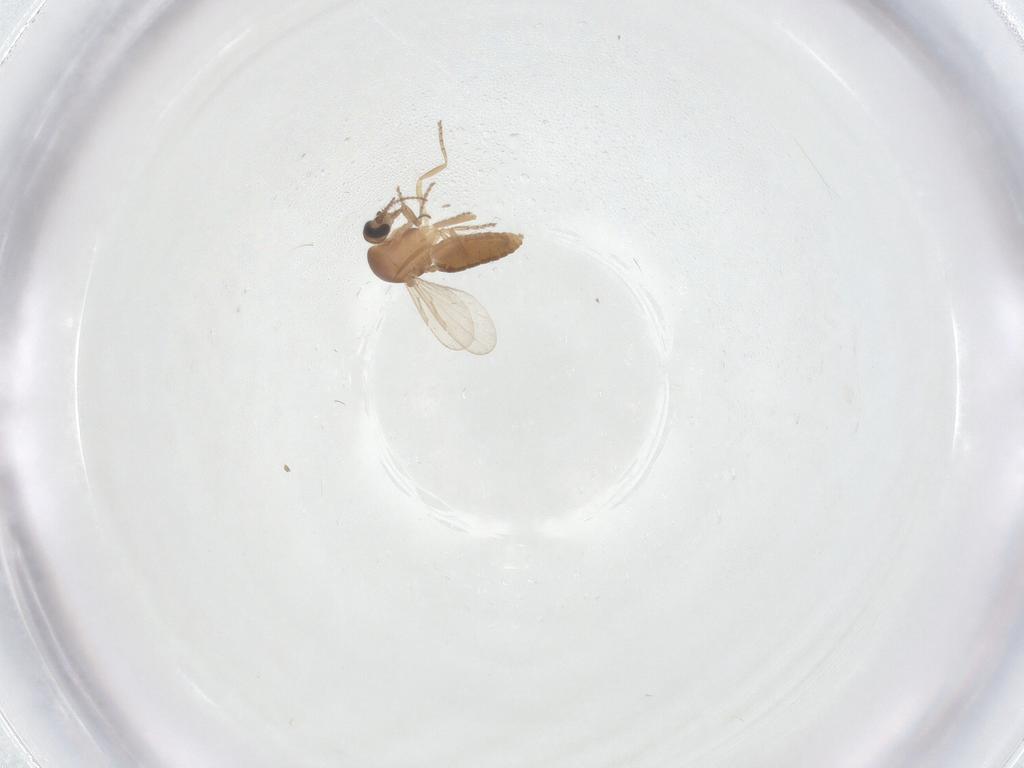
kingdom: Animalia
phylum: Arthropoda
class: Insecta
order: Diptera
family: Ceratopogonidae
